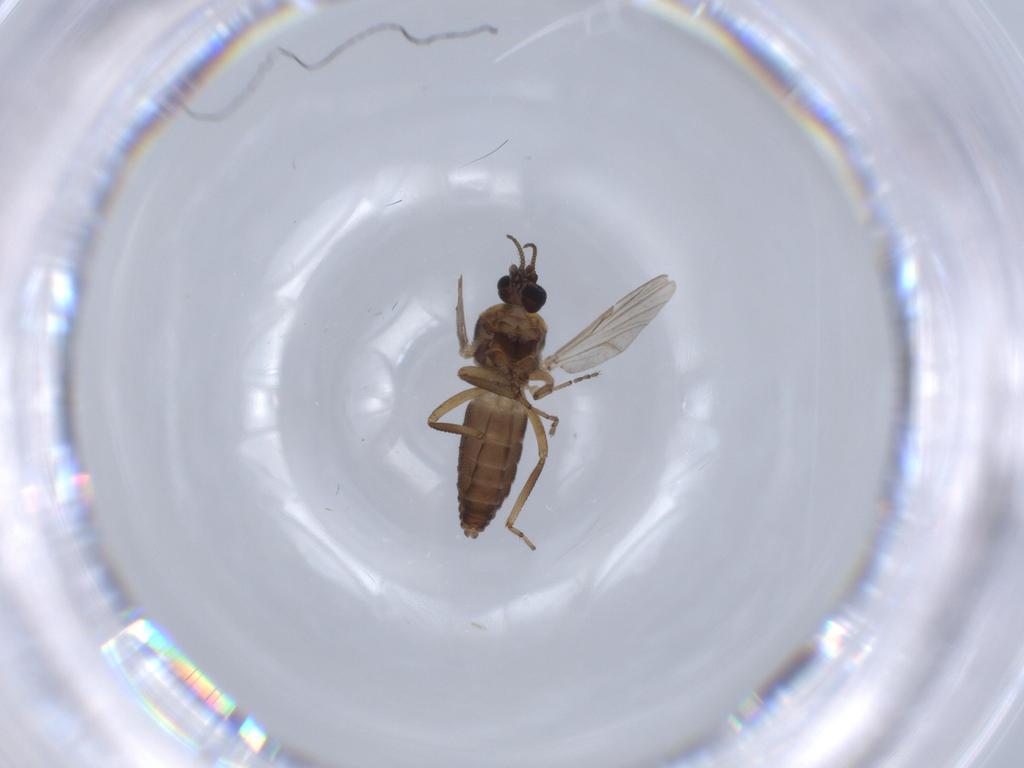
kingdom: Animalia
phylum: Arthropoda
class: Insecta
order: Diptera
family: Ceratopogonidae
